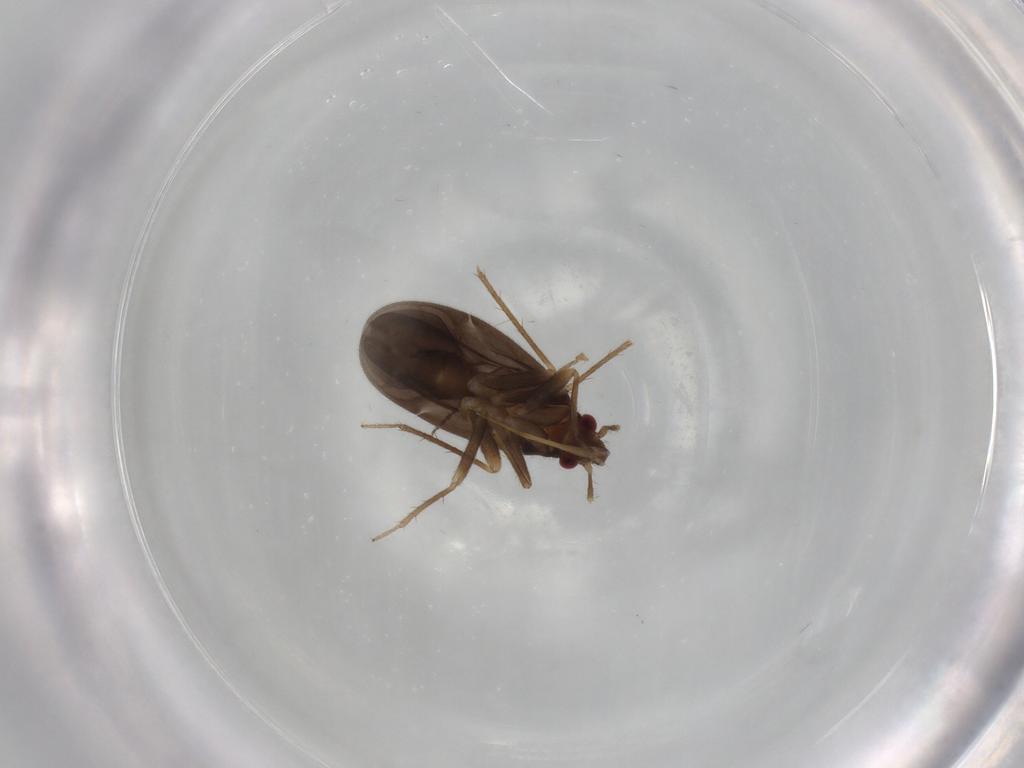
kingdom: Animalia
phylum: Arthropoda
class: Insecta
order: Hemiptera
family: Ceratocombidae
